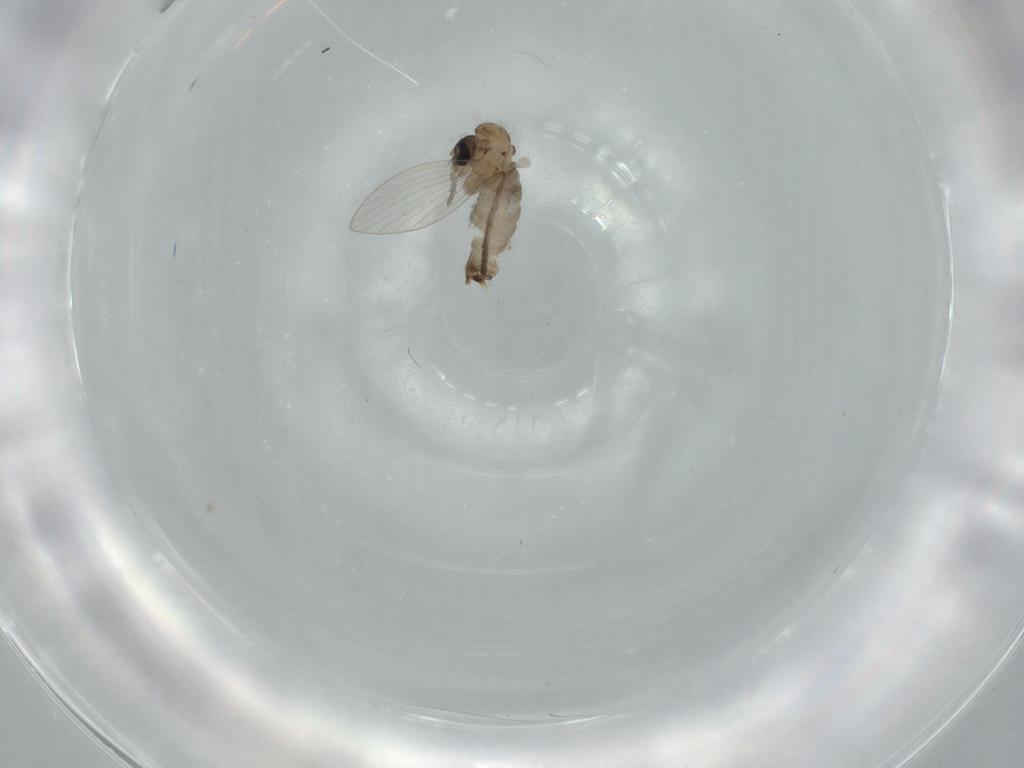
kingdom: Animalia
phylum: Arthropoda
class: Insecta
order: Diptera
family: Psychodidae
